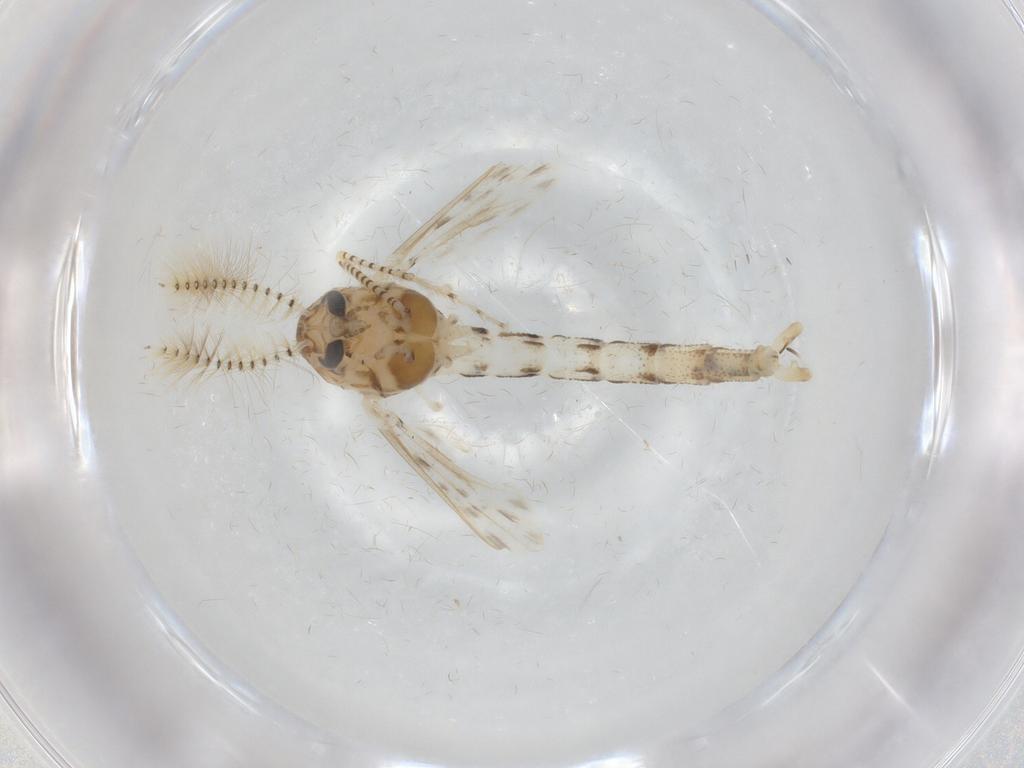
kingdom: Animalia
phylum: Arthropoda
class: Insecta
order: Diptera
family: Chaoboridae
